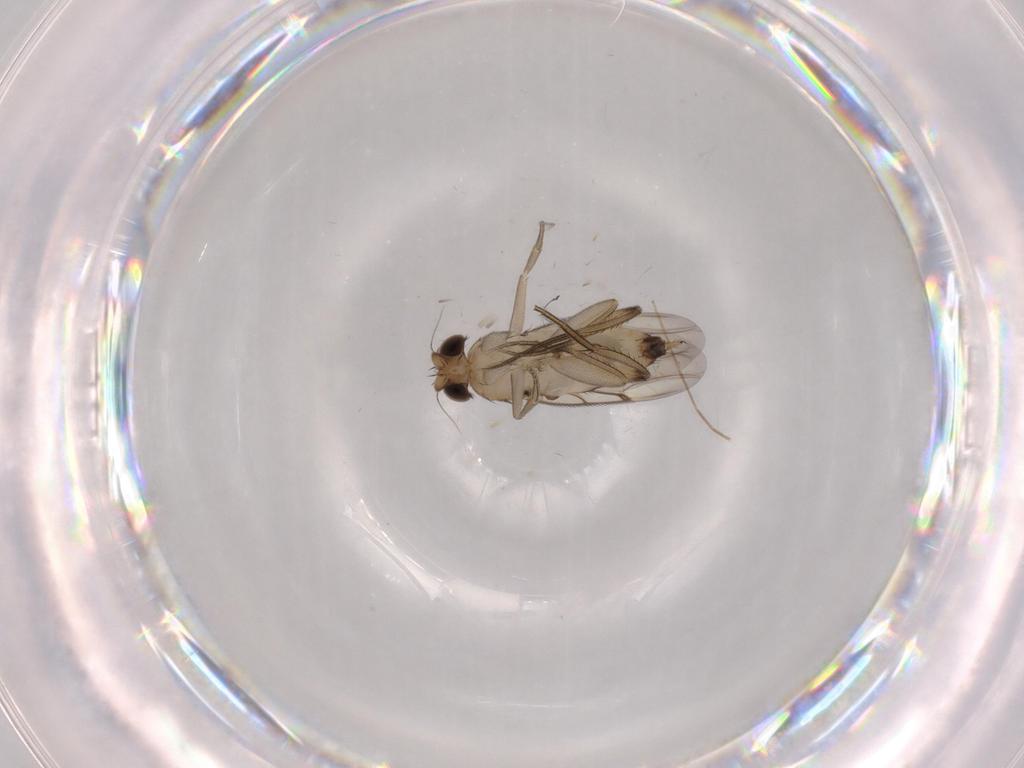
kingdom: Animalia
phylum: Arthropoda
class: Insecta
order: Diptera
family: Phoridae
